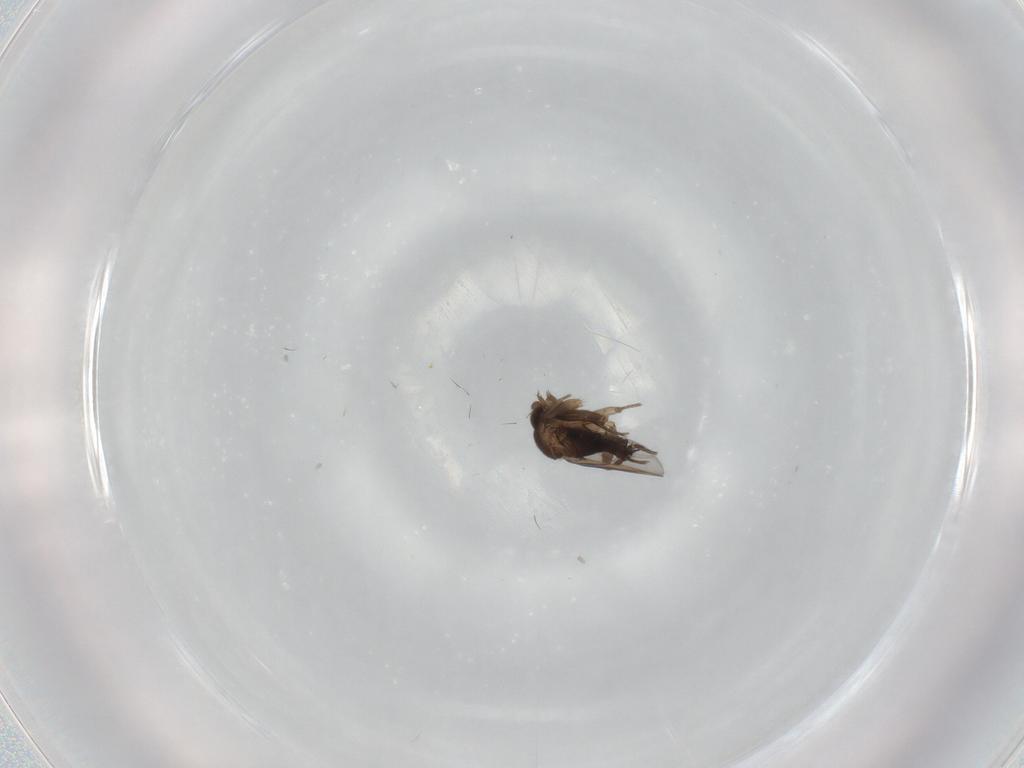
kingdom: Animalia
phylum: Arthropoda
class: Insecta
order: Diptera
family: Phoridae
